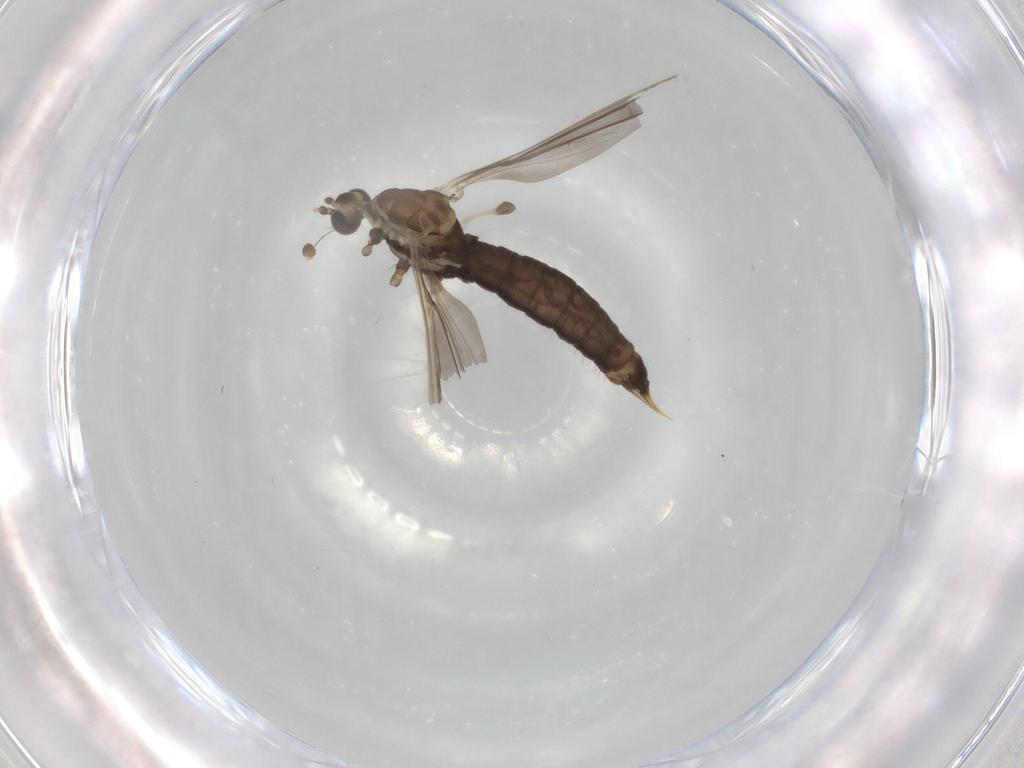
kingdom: Animalia
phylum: Arthropoda
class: Insecta
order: Diptera
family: Limoniidae
